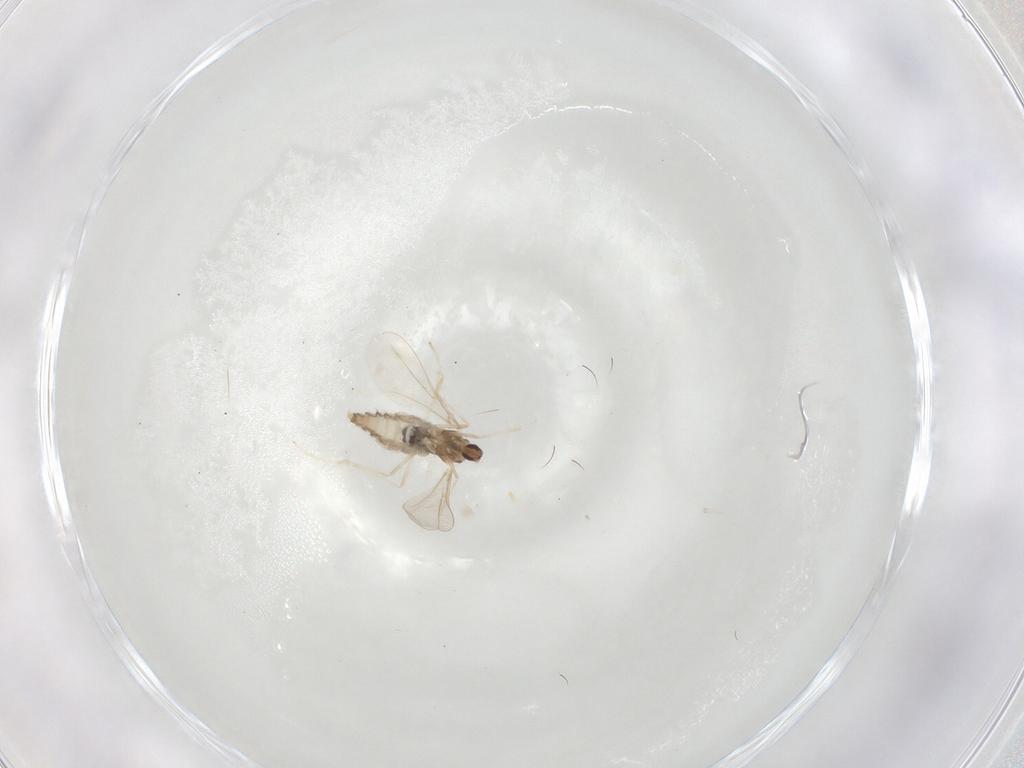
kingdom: Animalia
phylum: Arthropoda
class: Insecta
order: Diptera
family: Cecidomyiidae
